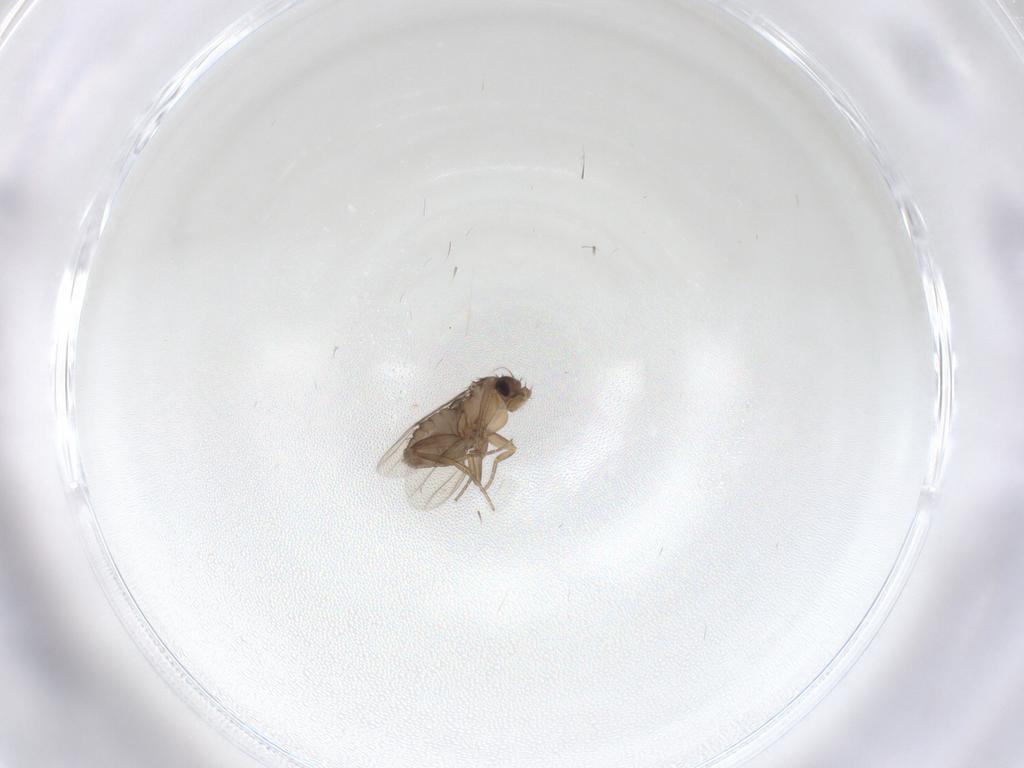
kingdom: Animalia
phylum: Arthropoda
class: Insecta
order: Diptera
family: Phoridae
